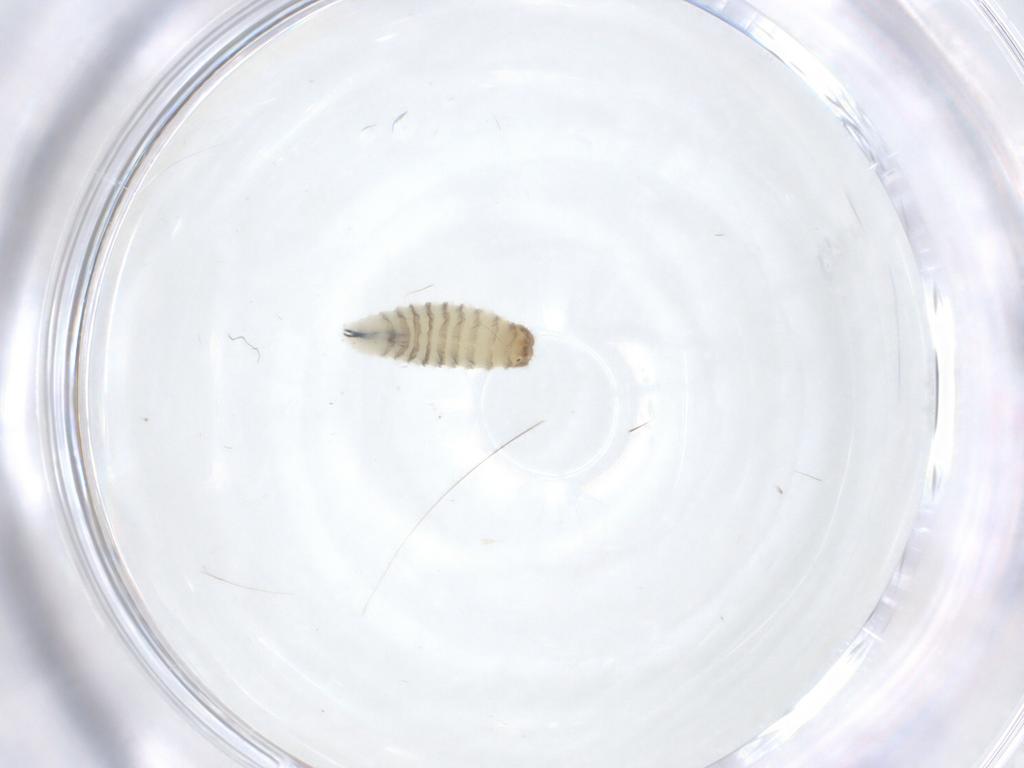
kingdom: Animalia
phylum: Arthropoda
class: Insecta
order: Diptera
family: Sarcophagidae
